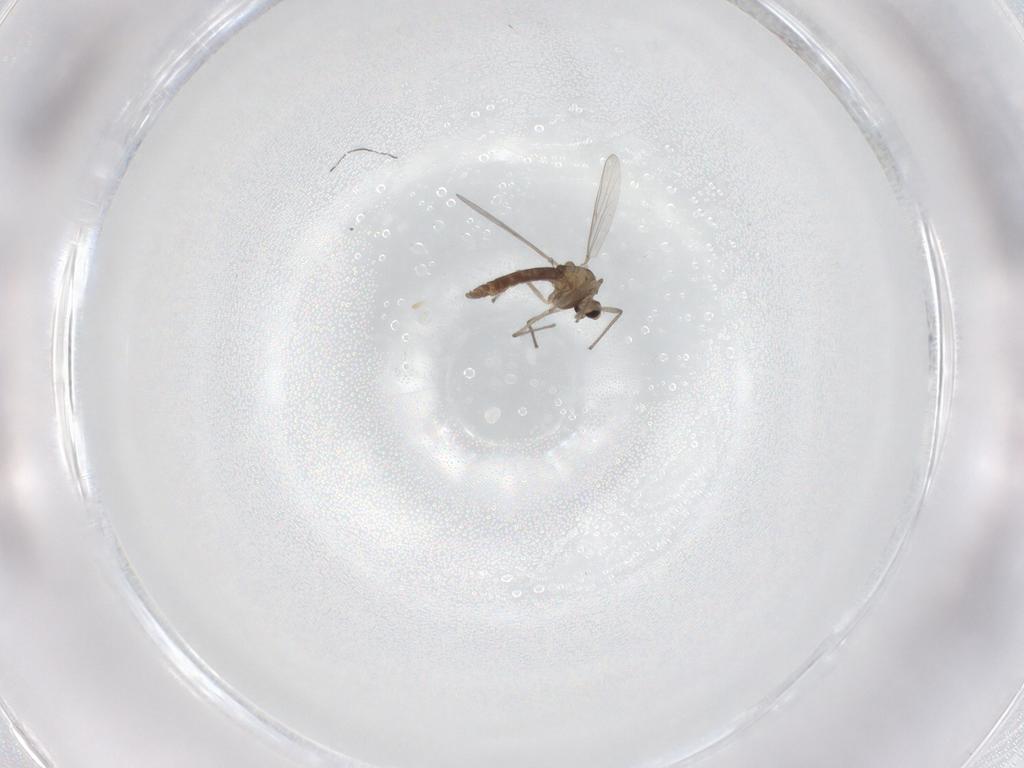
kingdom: Animalia
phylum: Arthropoda
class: Insecta
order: Diptera
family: Chironomidae
